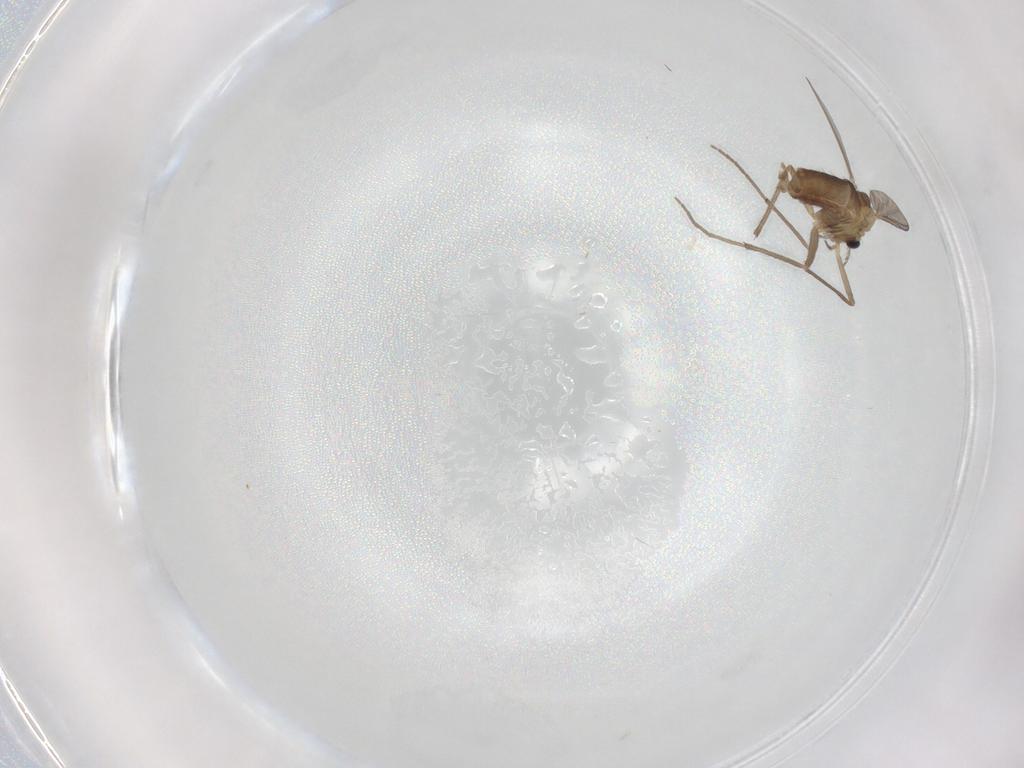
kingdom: Animalia
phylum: Arthropoda
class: Insecta
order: Diptera
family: Chironomidae
